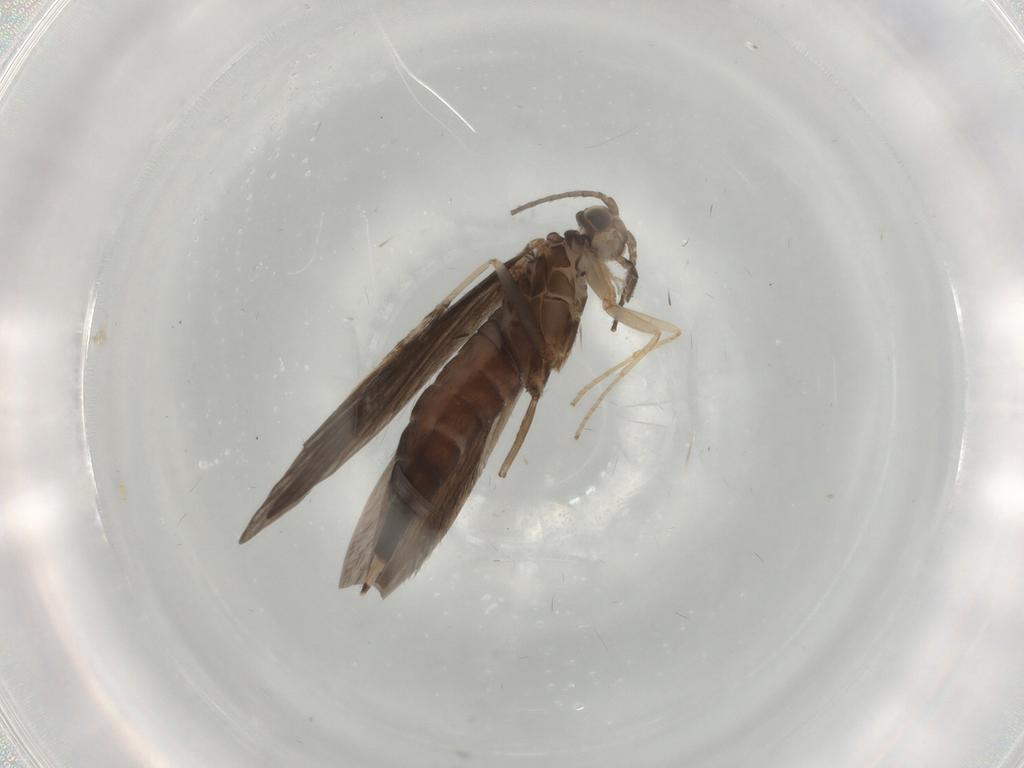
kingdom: Animalia
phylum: Arthropoda
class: Insecta
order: Trichoptera
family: Xiphocentronidae
